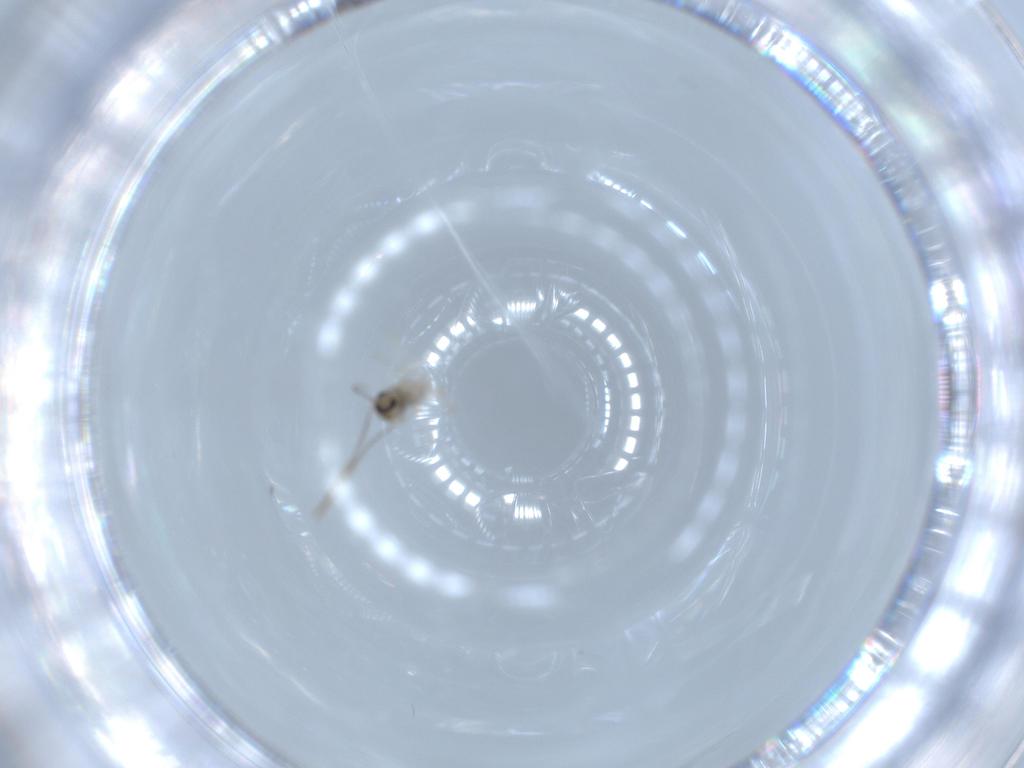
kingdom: Animalia
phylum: Arthropoda
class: Insecta
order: Diptera
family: Cecidomyiidae
